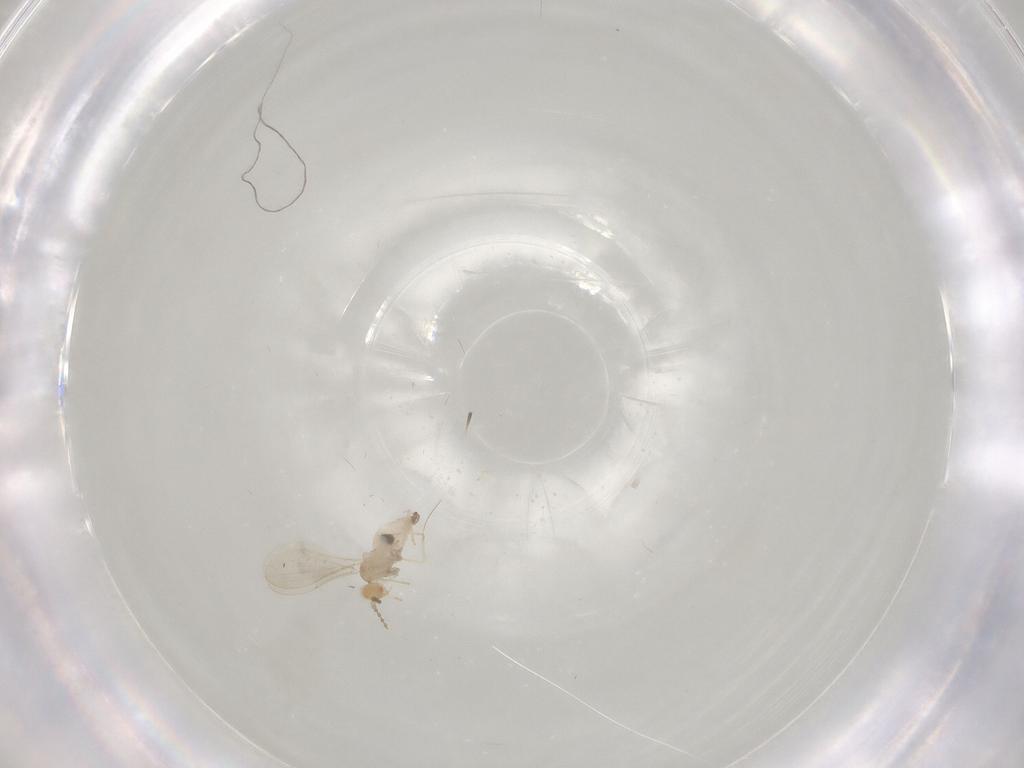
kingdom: Animalia
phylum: Arthropoda
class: Insecta
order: Diptera
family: Cecidomyiidae
